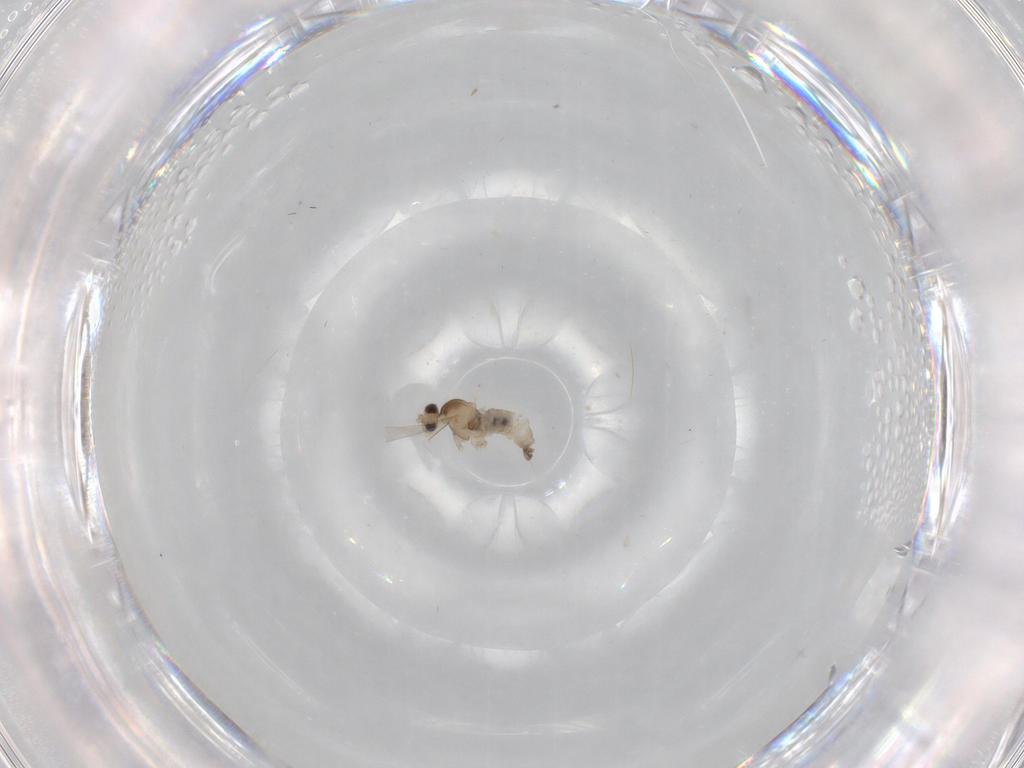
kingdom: Animalia
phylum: Arthropoda
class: Insecta
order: Diptera
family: Cecidomyiidae
